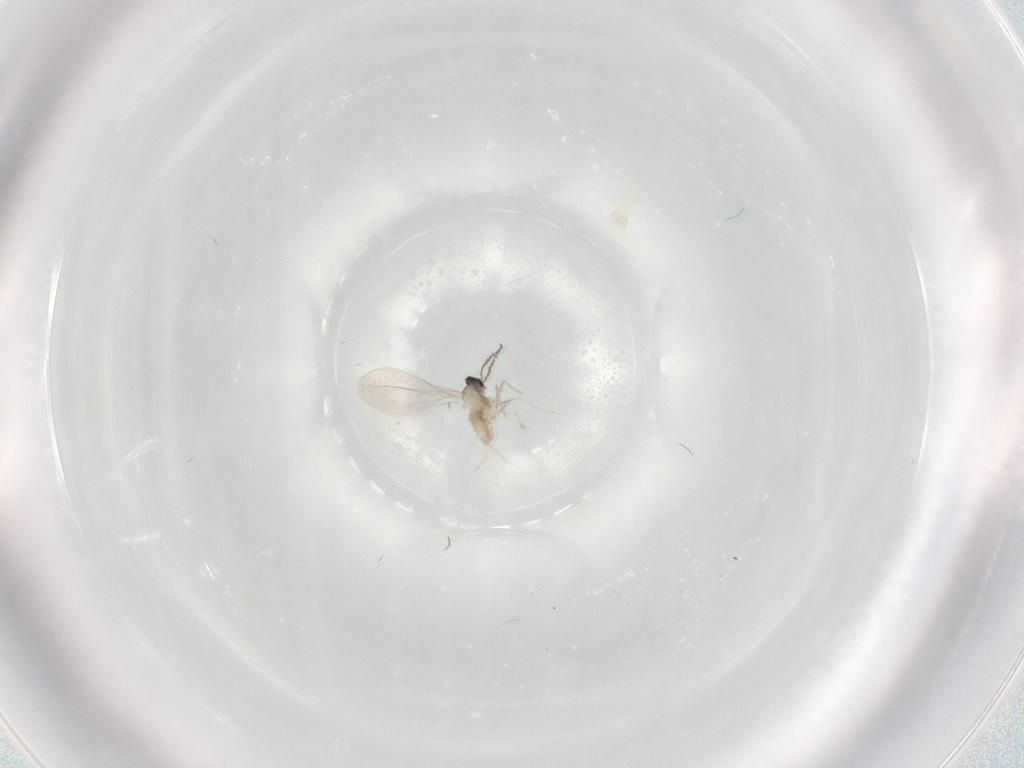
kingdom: Animalia
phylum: Arthropoda
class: Insecta
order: Diptera
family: Cecidomyiidae
